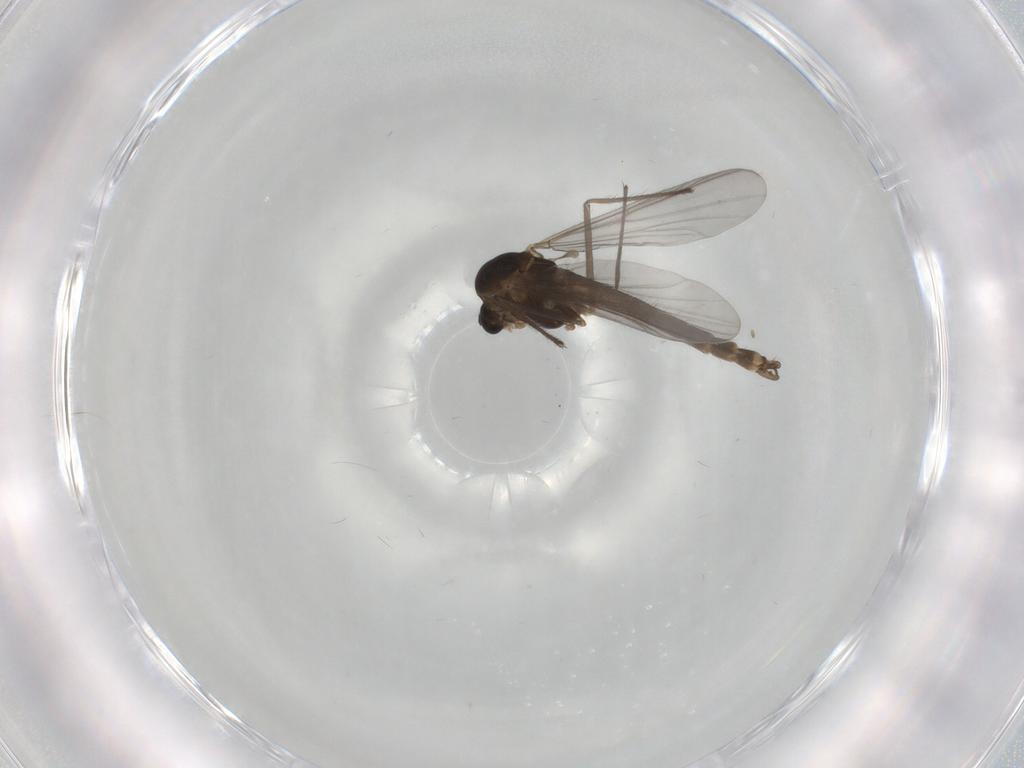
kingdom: Animalia
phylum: Arthropoda
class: Insecta
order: Diptera
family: Chironomidae
